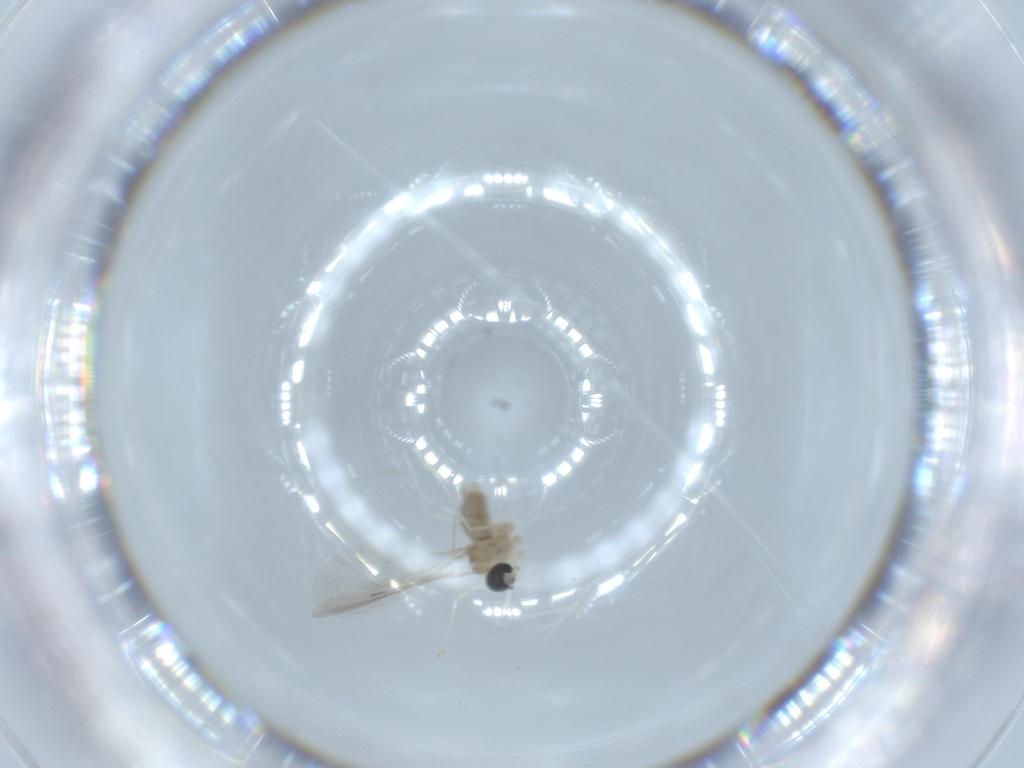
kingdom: Animalia
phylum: Arthropoda
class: Insecta
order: Diptera
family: Cecidomyiidae
